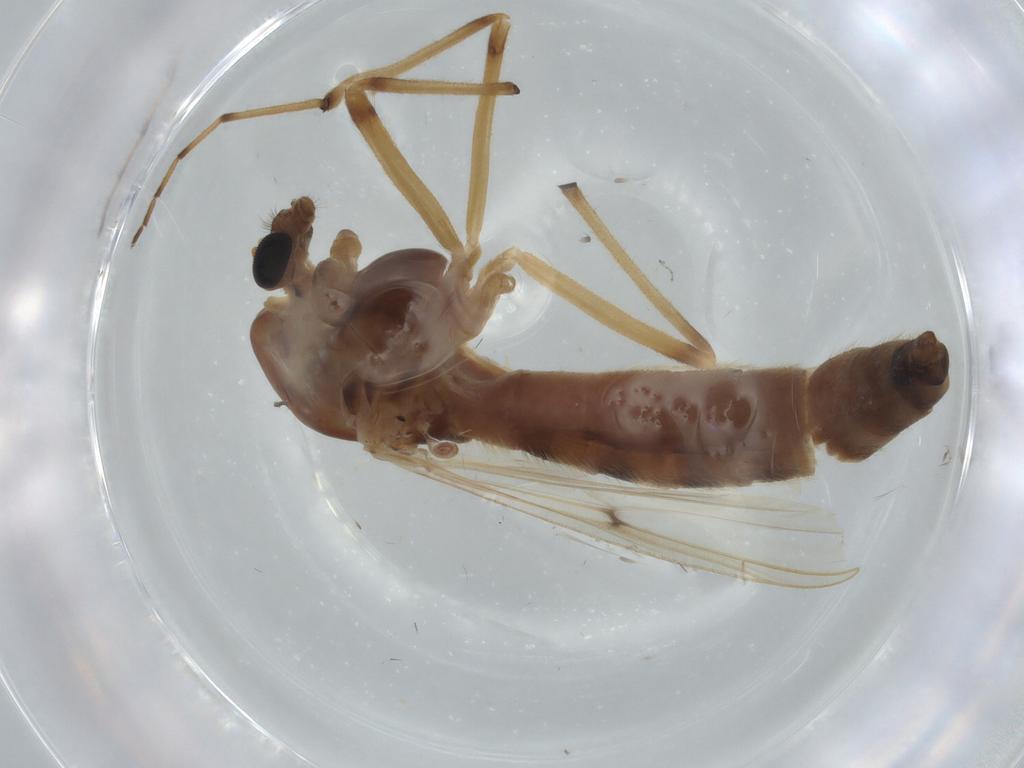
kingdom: Animalia
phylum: Arthropoda
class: Insecta
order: Diptera
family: Chironomidae
